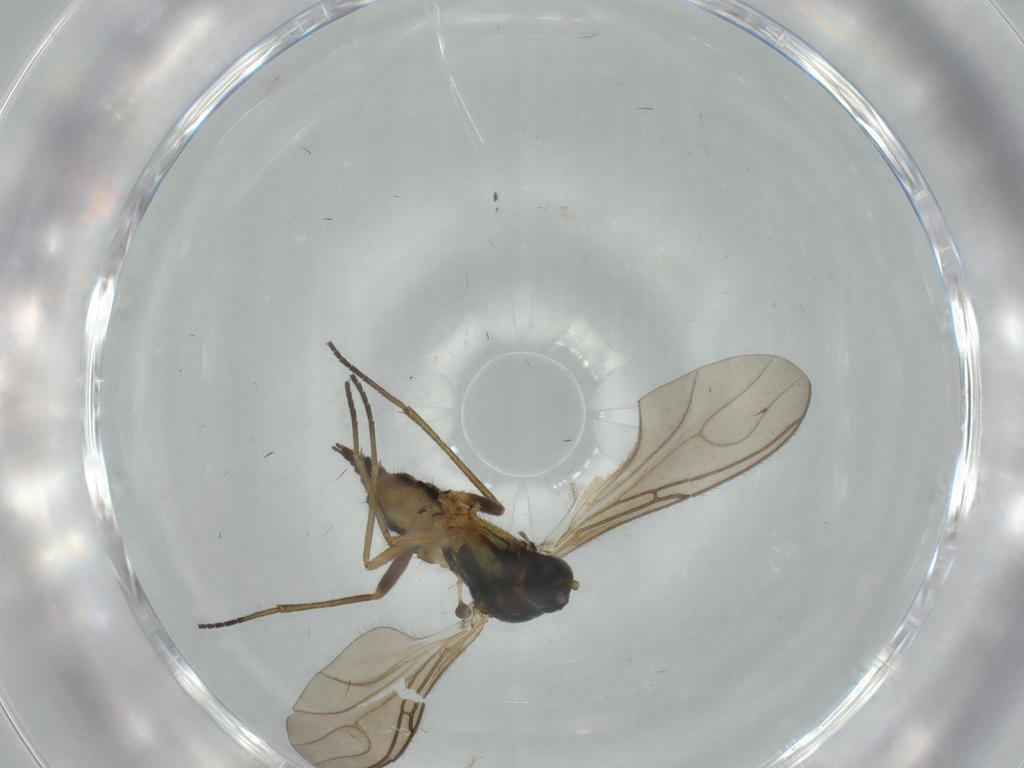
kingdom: Animalia
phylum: Arthropoda
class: Insecta
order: Diptera
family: Sciaridae
